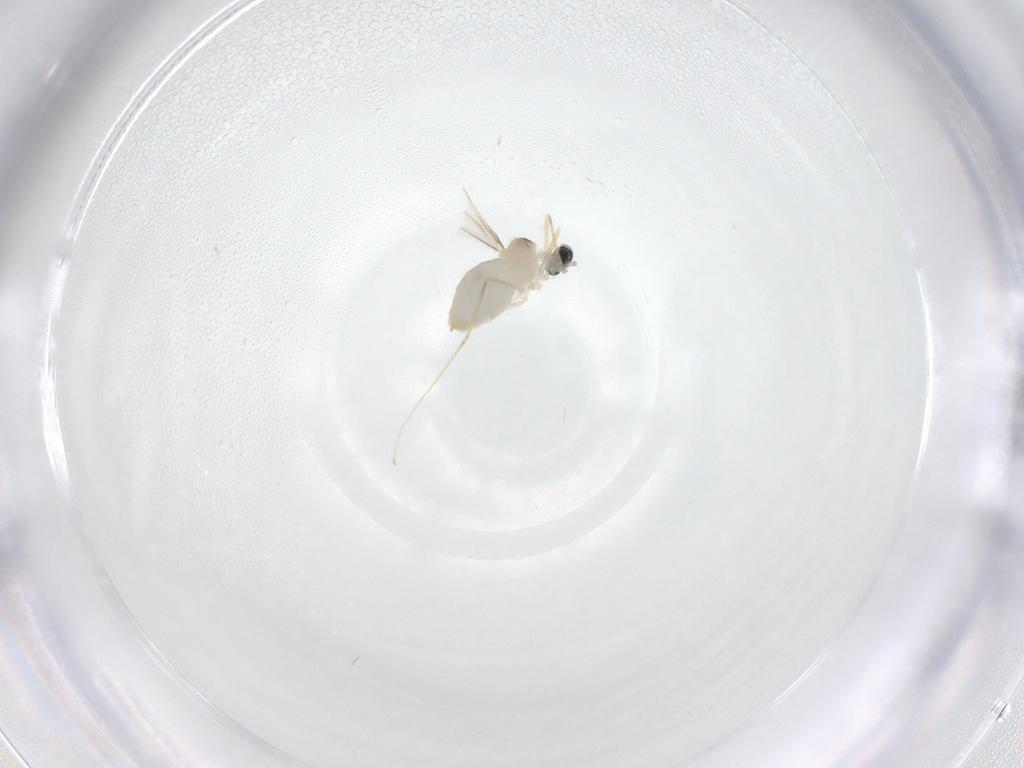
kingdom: Animalia
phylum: Arthropoda
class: Insecta
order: Diptera
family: Cecidomyiidae
